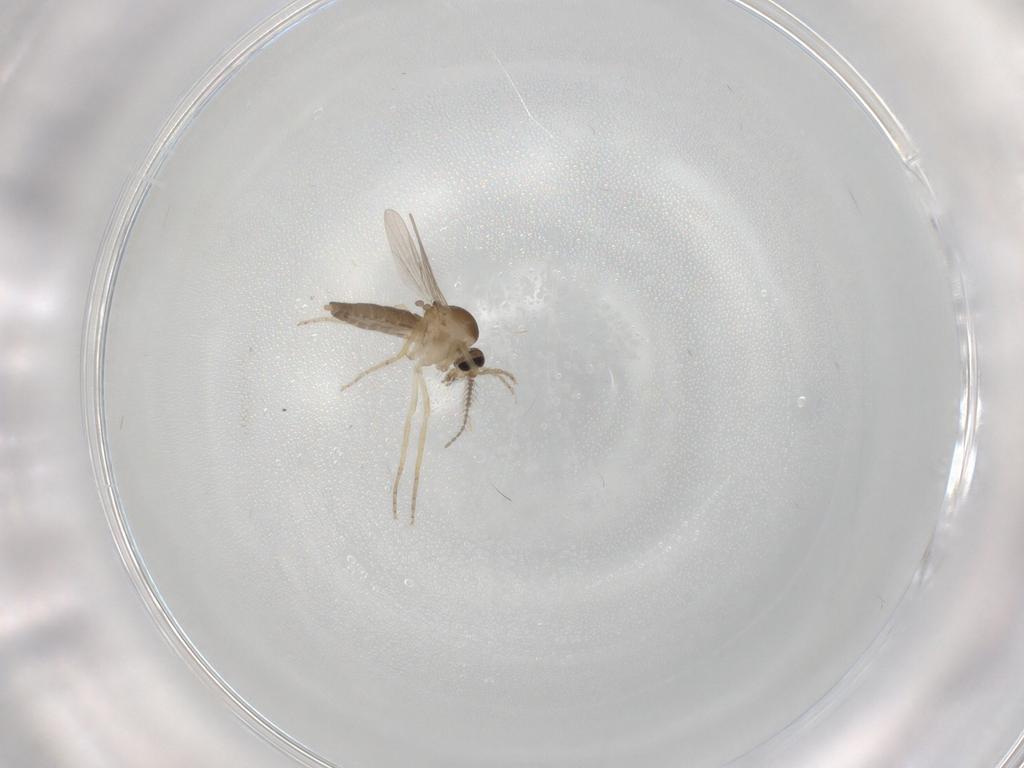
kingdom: Animalia
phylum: Arthropoda
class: Insecta
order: Diptera
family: Ceratopogonidae
